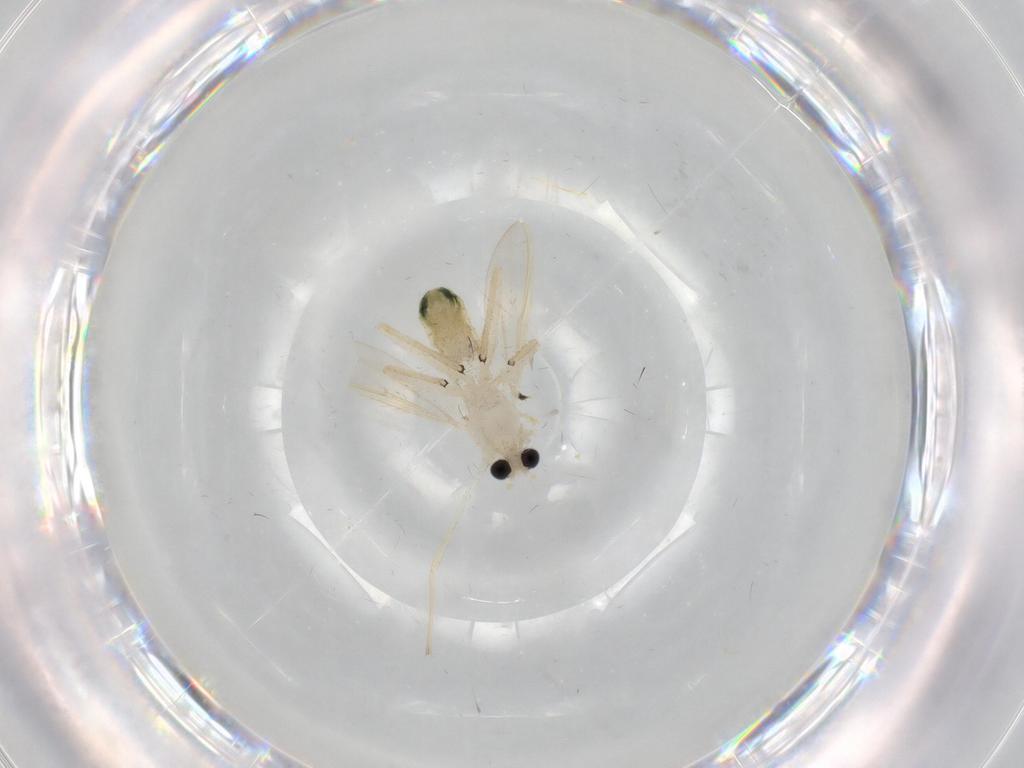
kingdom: Animalia
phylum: Arthropoda
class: Insecta
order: Diptera
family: Chironomidae
